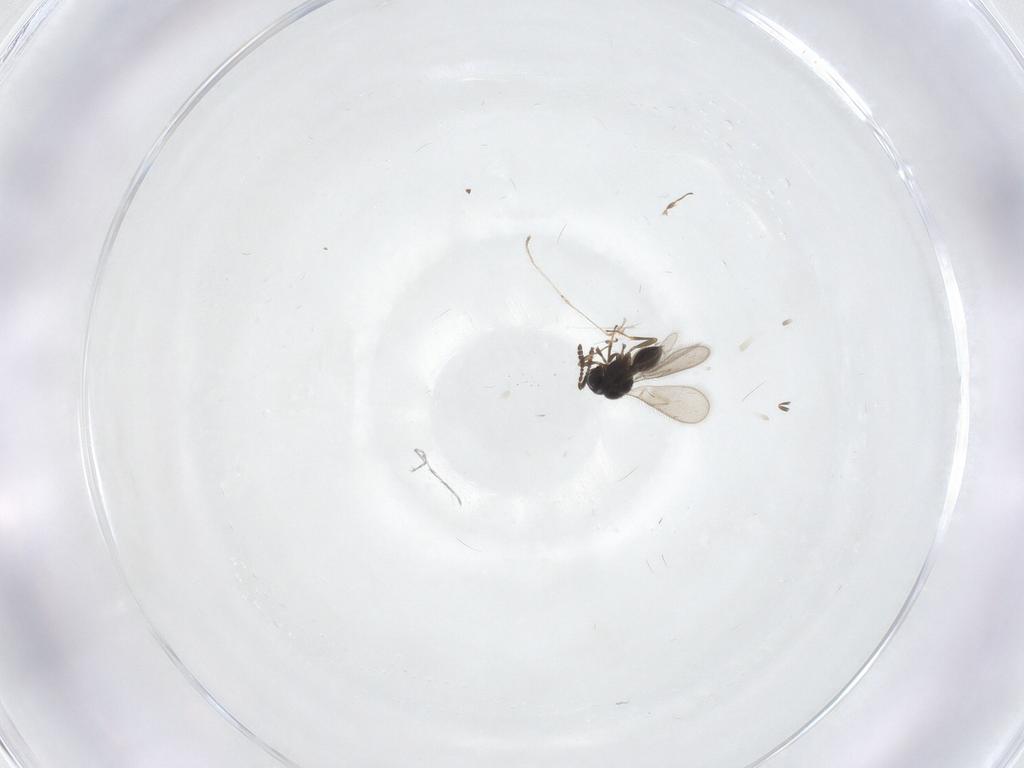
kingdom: Animalia
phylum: Arthropoda
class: Insecta
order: Hymenoptera
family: Scelionidae
